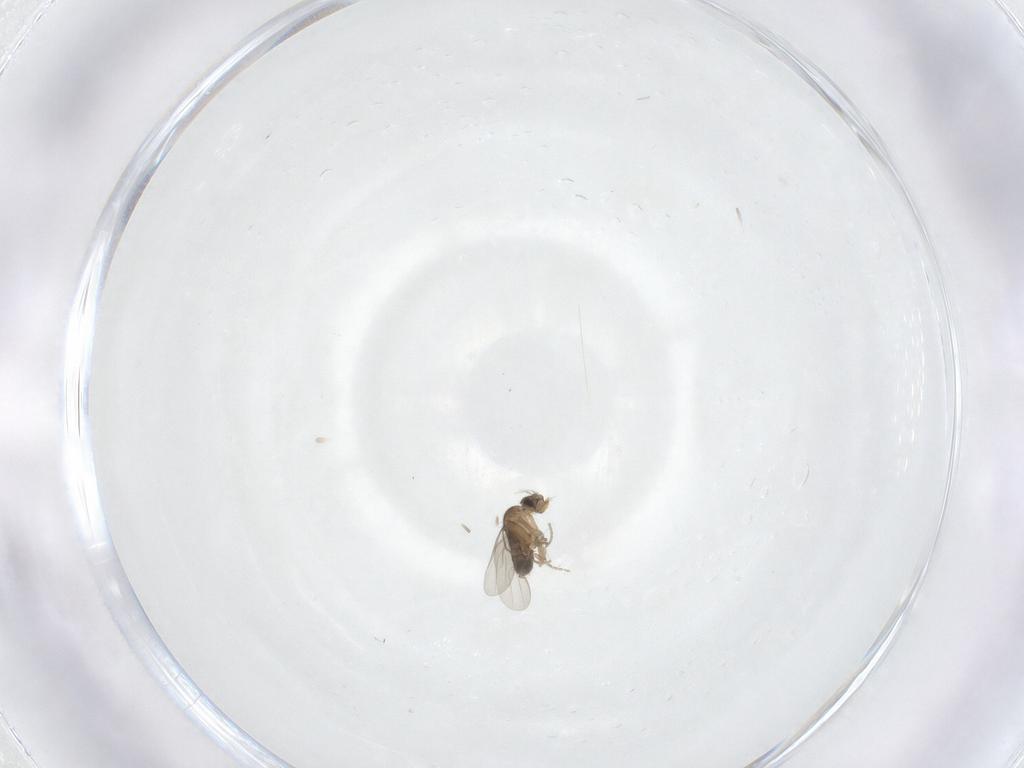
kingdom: Animalia
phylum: Arthropoda
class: Insecta
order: Diptera
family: Phoridae
